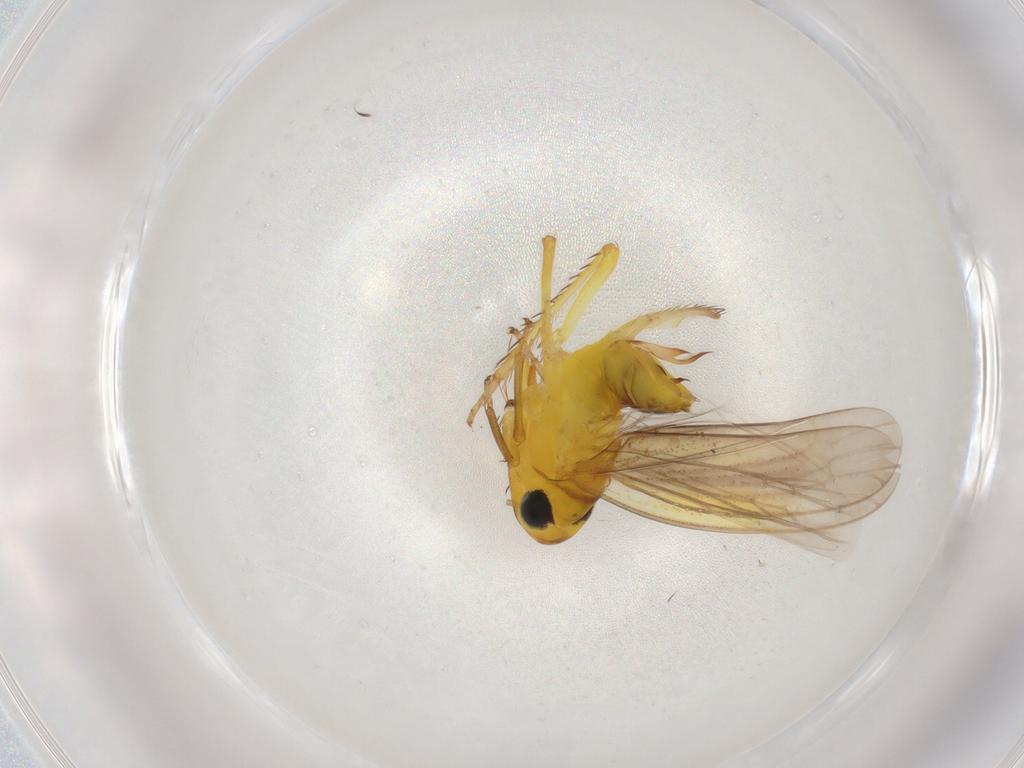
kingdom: Animalia
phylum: Arthropoda
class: Insecta
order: Hemiptera
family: Cicadellidae
